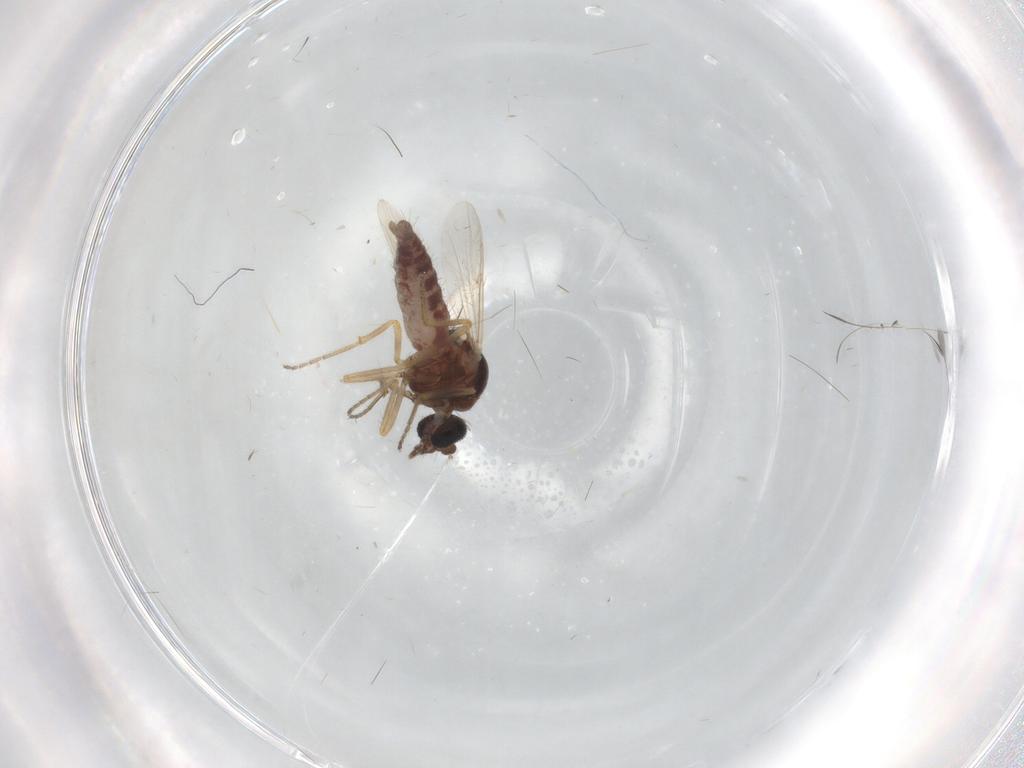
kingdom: Animalia
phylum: Arthropoda
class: Insecta
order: Diptera
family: Ceratopogonidae
